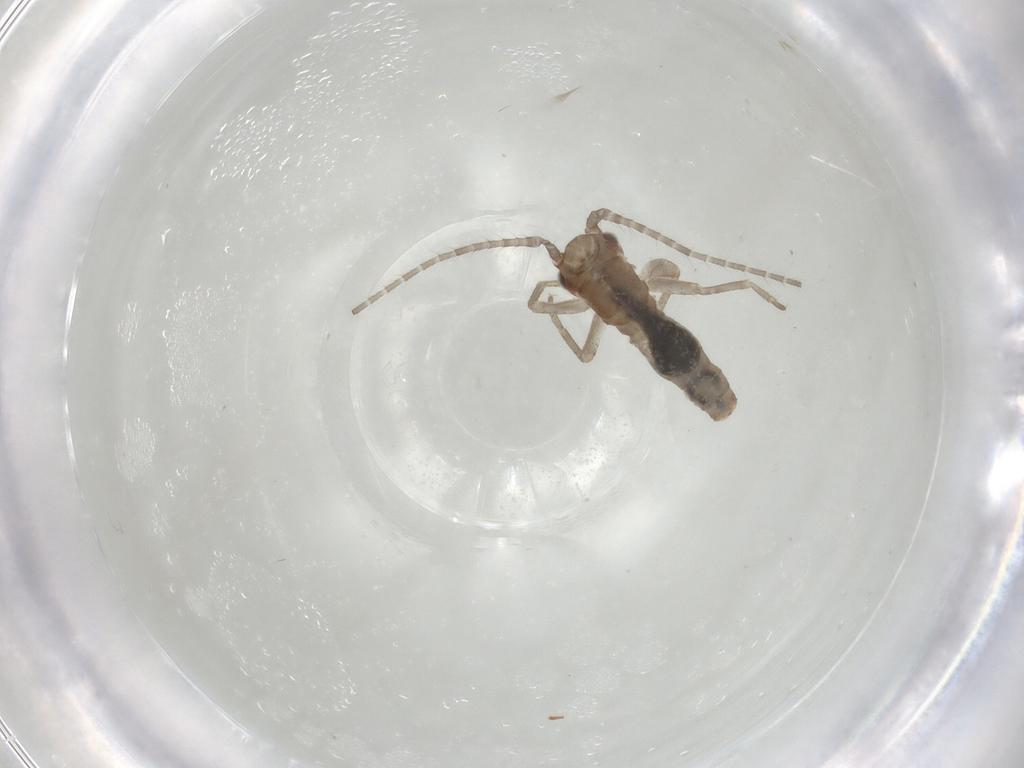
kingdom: Animalia
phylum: Arthropoda
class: Insecta
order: Orthoptera
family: Mogoplistidae
